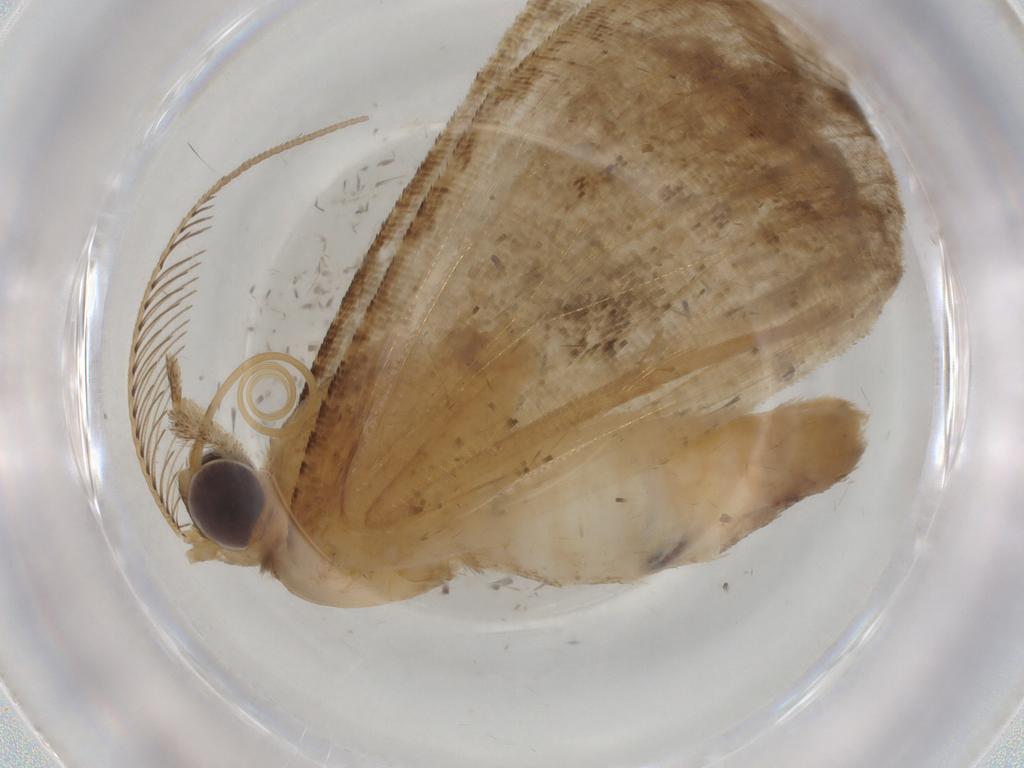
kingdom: Animalia
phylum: Arthropoda
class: Insecta
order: Lepidoptera
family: Geometridae
